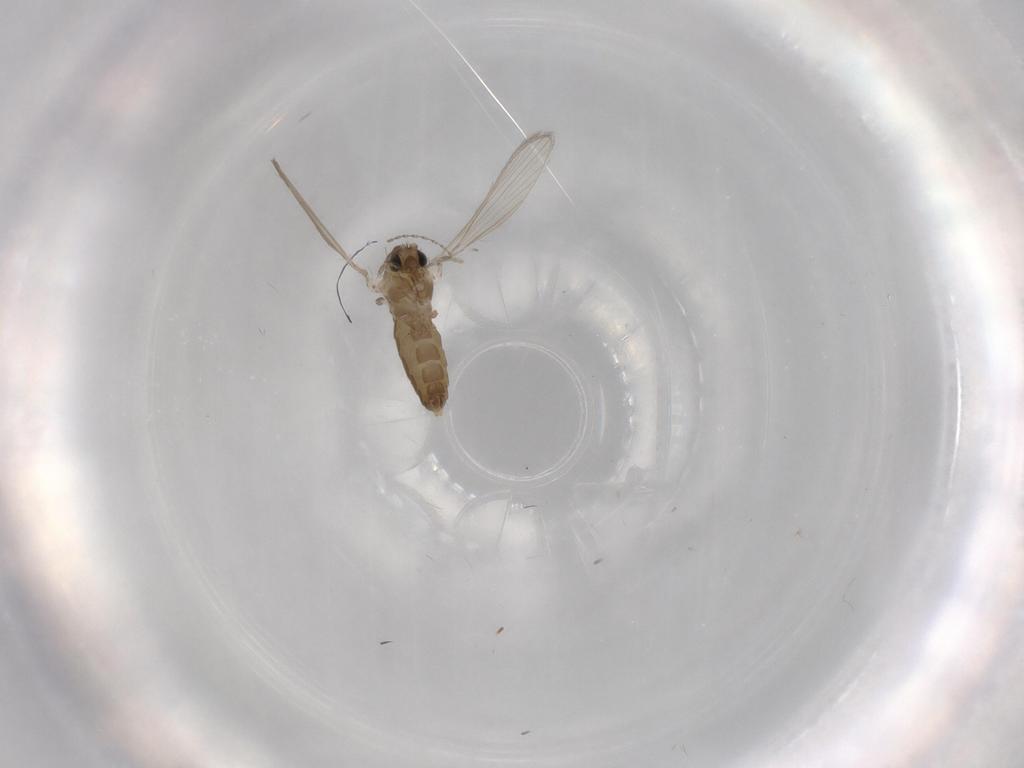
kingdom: Animalia
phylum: Arthropoda
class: Insecta
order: Diptera
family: Psychodidae
